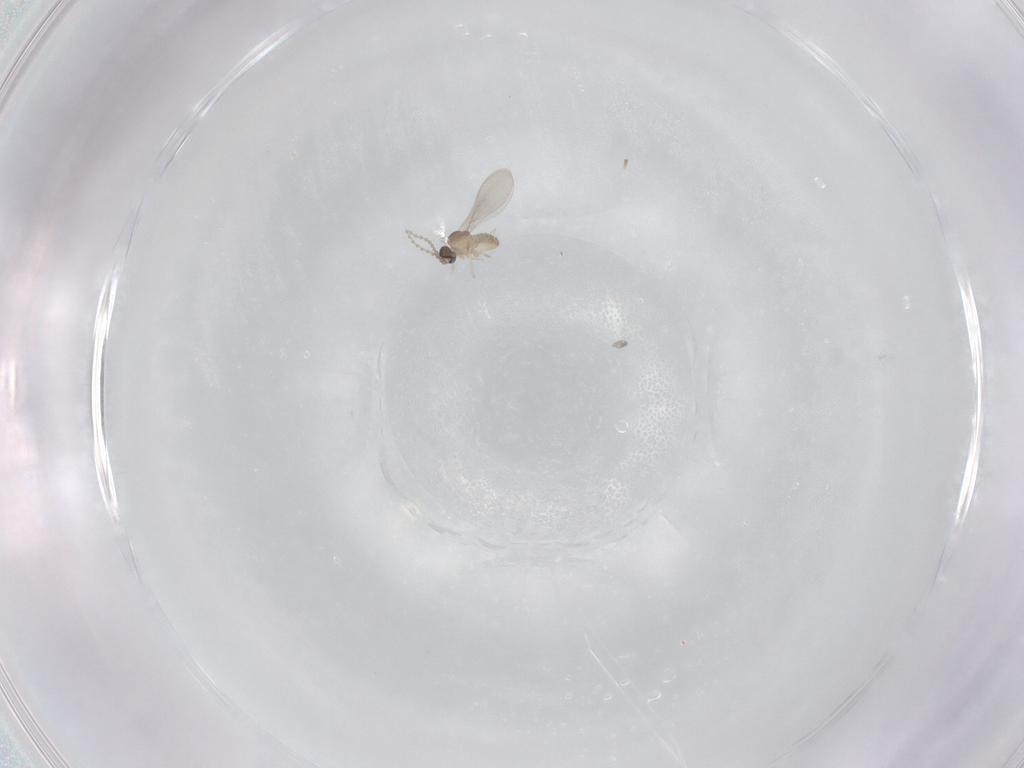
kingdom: Animalia
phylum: Arthropoda
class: Insecta
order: Diptera
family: Cecidomyiidae
